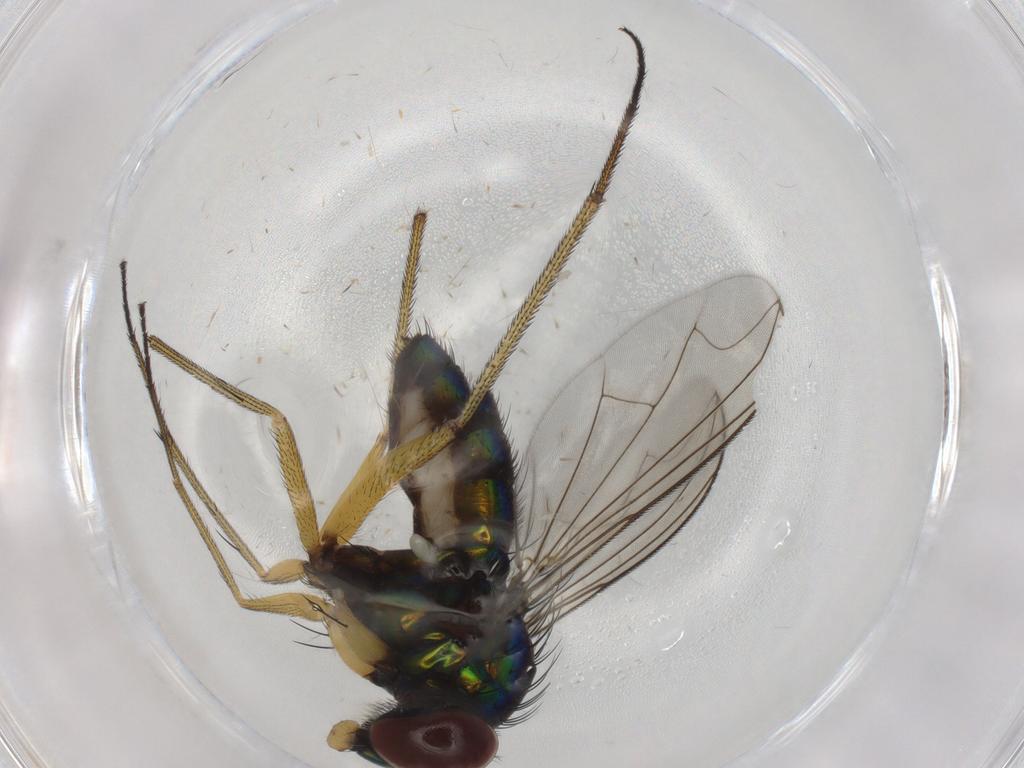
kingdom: Animalia
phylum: Arthropoda
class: Insecta
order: Diptera
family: Dolichopodidae
